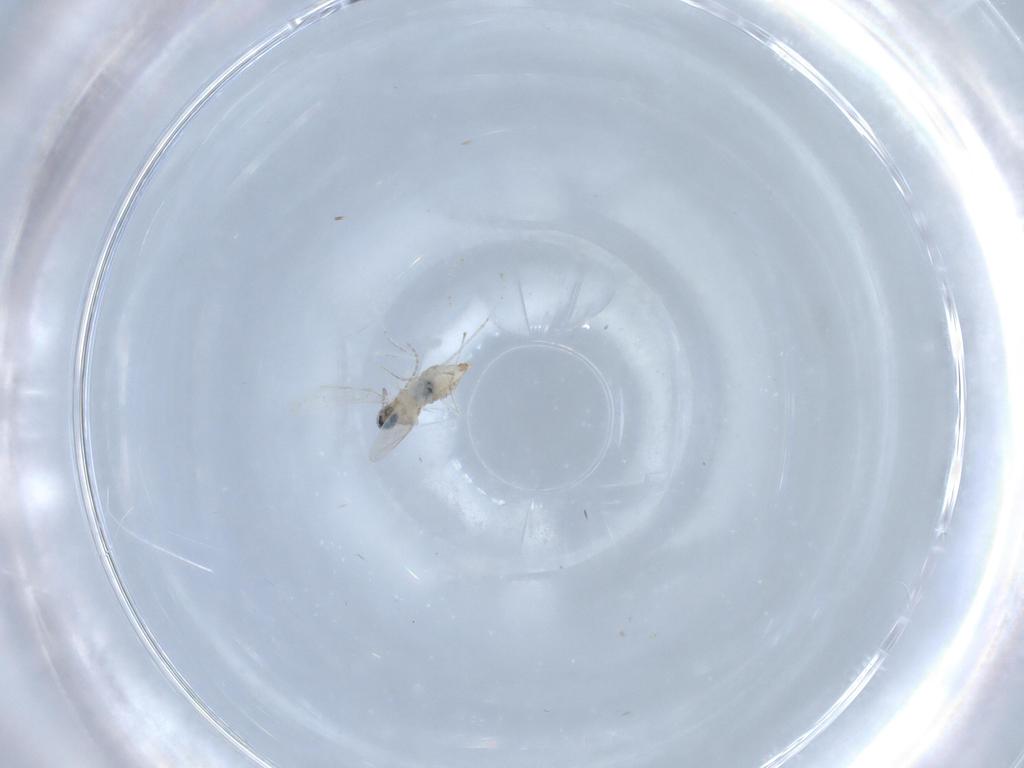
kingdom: Animalia
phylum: Arthropoda
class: Insecta
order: Diptera
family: Cecidomyiidae
